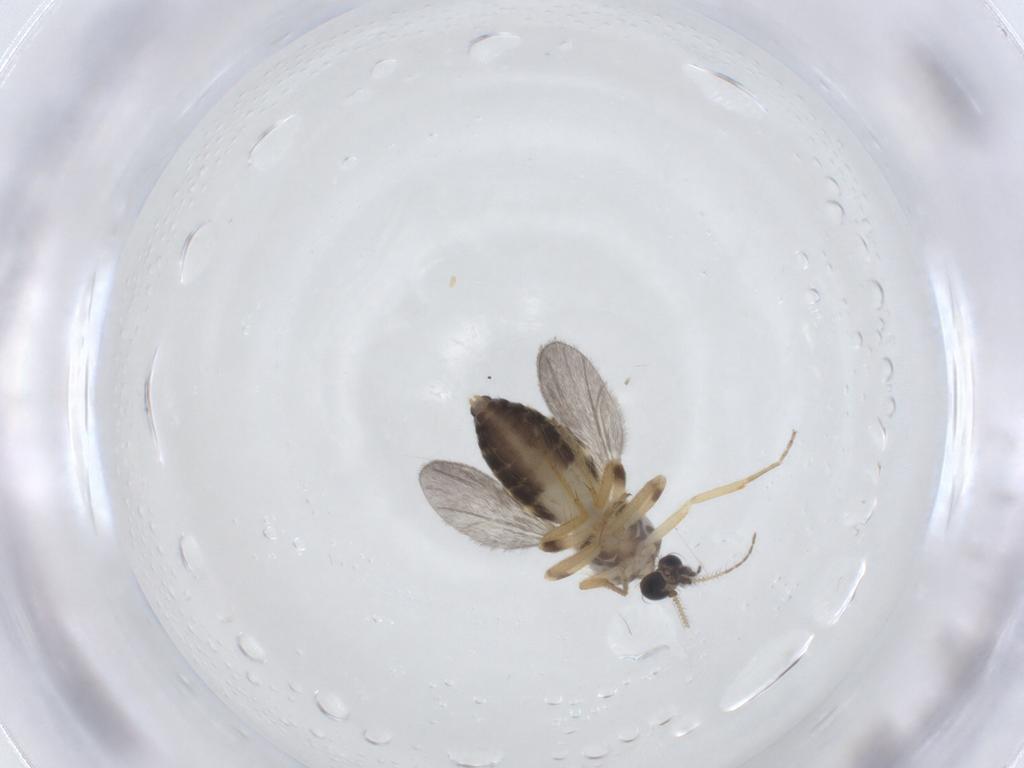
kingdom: Animalia
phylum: Arthropoda
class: Insecta
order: Diptera
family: Ceratopogonidae
